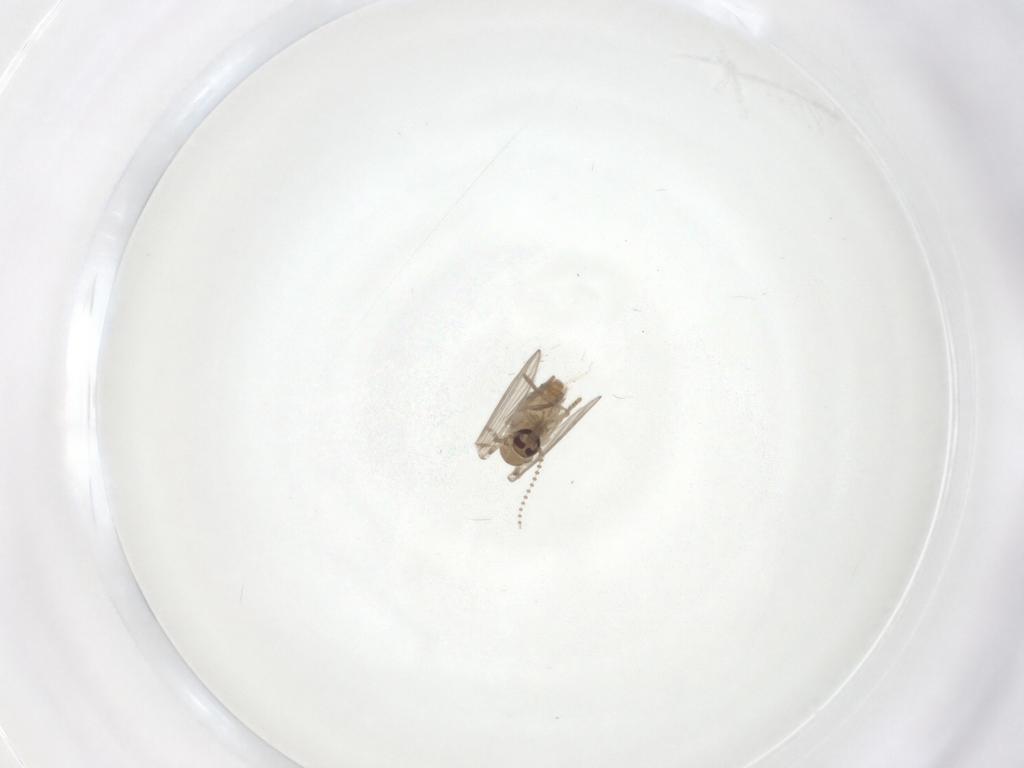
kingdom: Animalia
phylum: Arthropoda
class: Insecta
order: Diptera
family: Psychodidae
